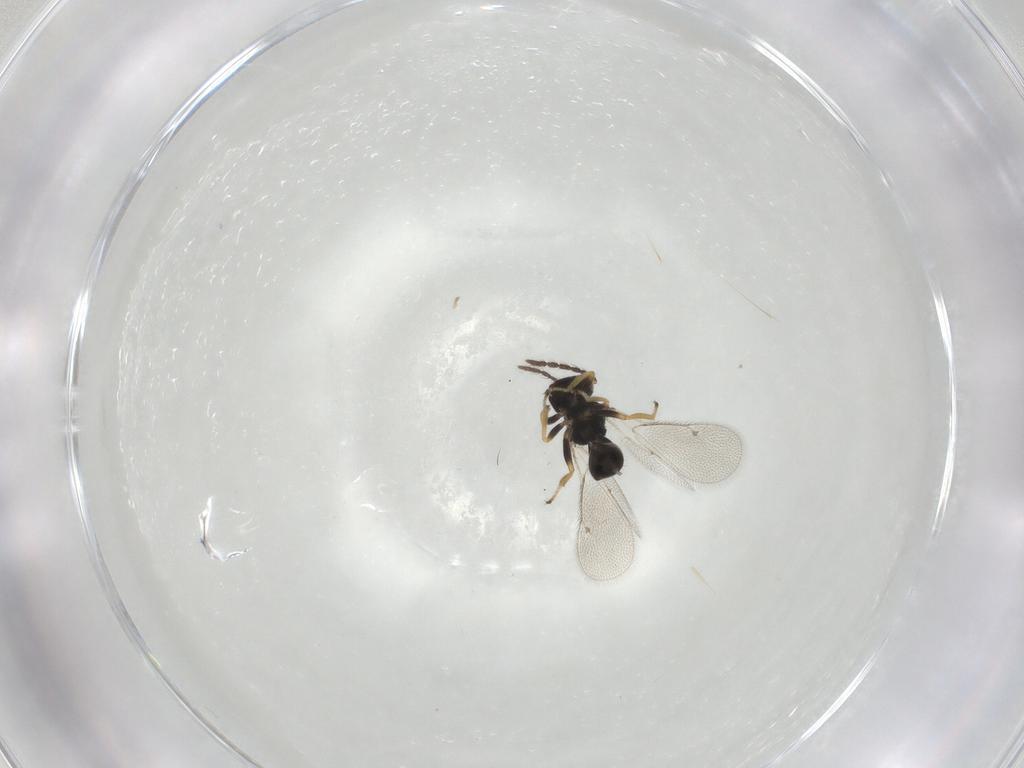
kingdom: Animalia
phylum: Arthropoda
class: Insecta
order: Hymenoptera
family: Eulophidae
